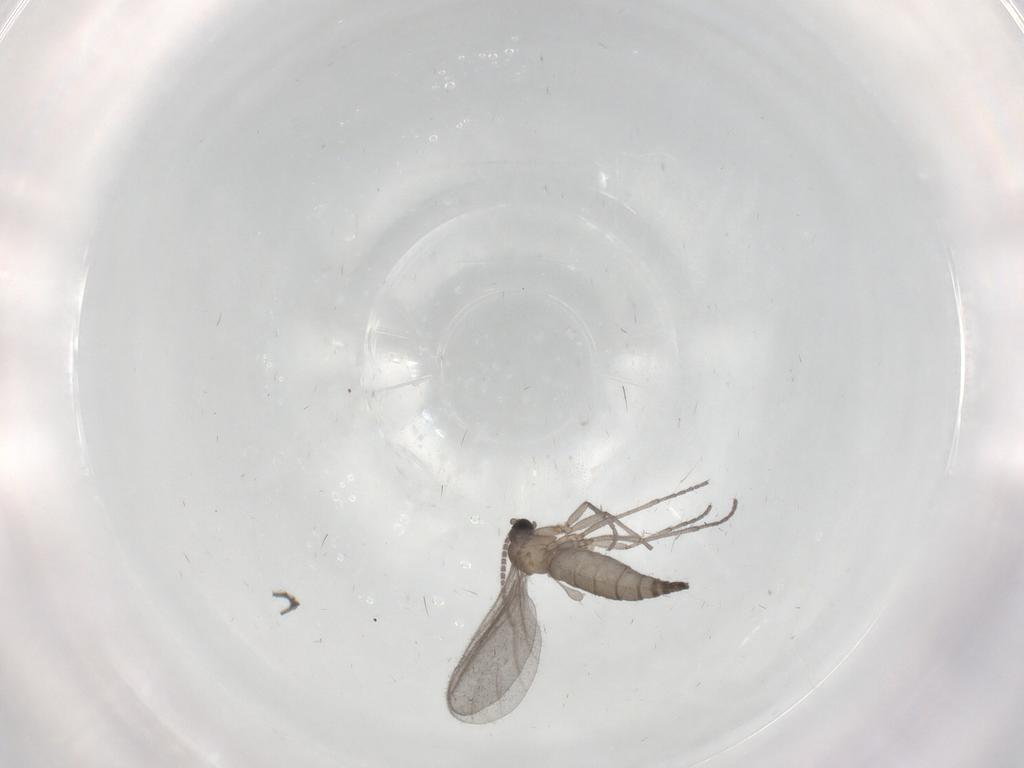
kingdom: Animalia
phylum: Arthropoda
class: Insecta
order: Diptera
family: Sciaridae
